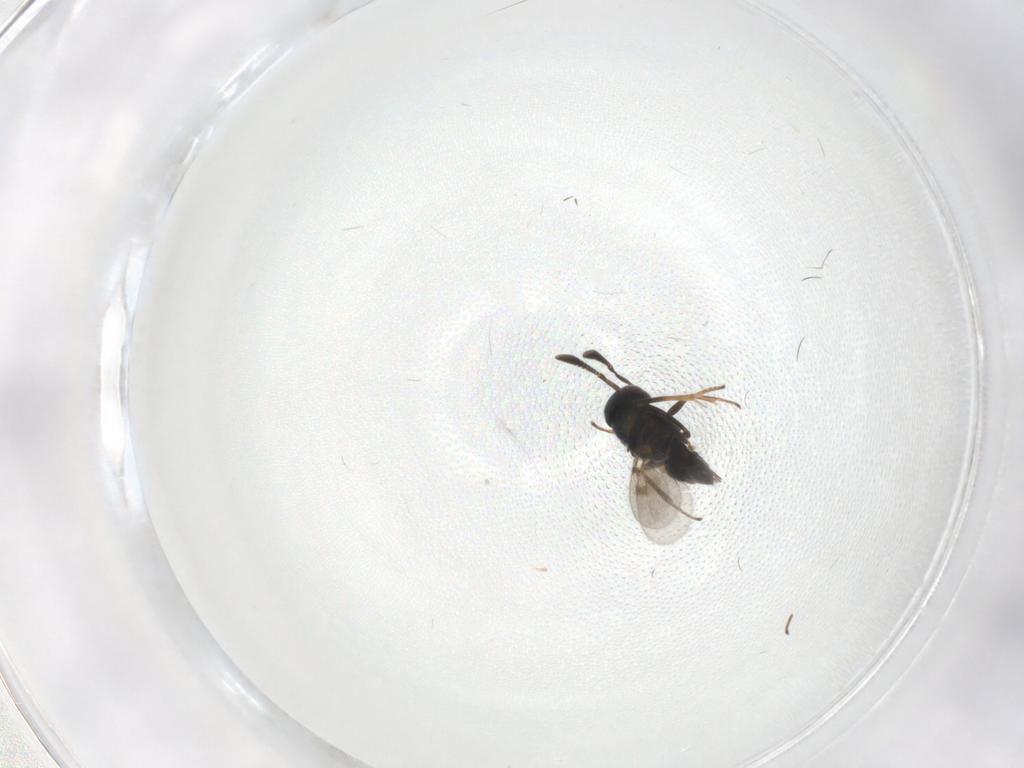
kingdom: Animalia
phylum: Arthropoda
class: Insecta
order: Hymenoptera
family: Encyrtidae
